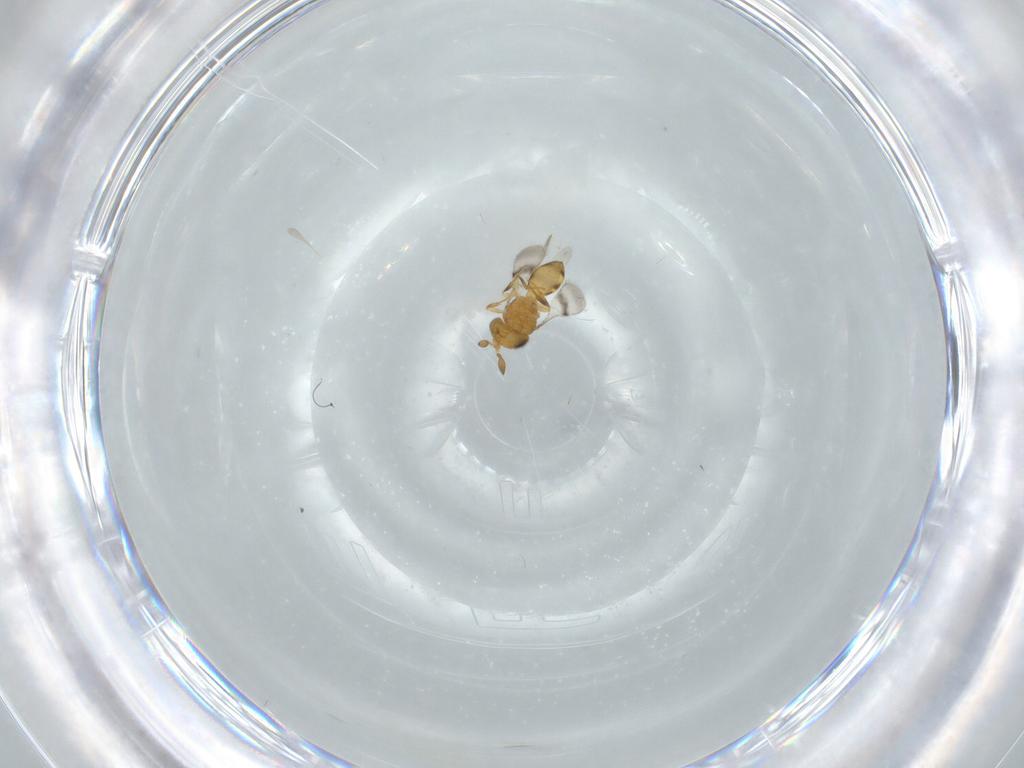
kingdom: Animalia
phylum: Arthropoda
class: Insecta
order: Hymenoptera
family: Scelionidae
